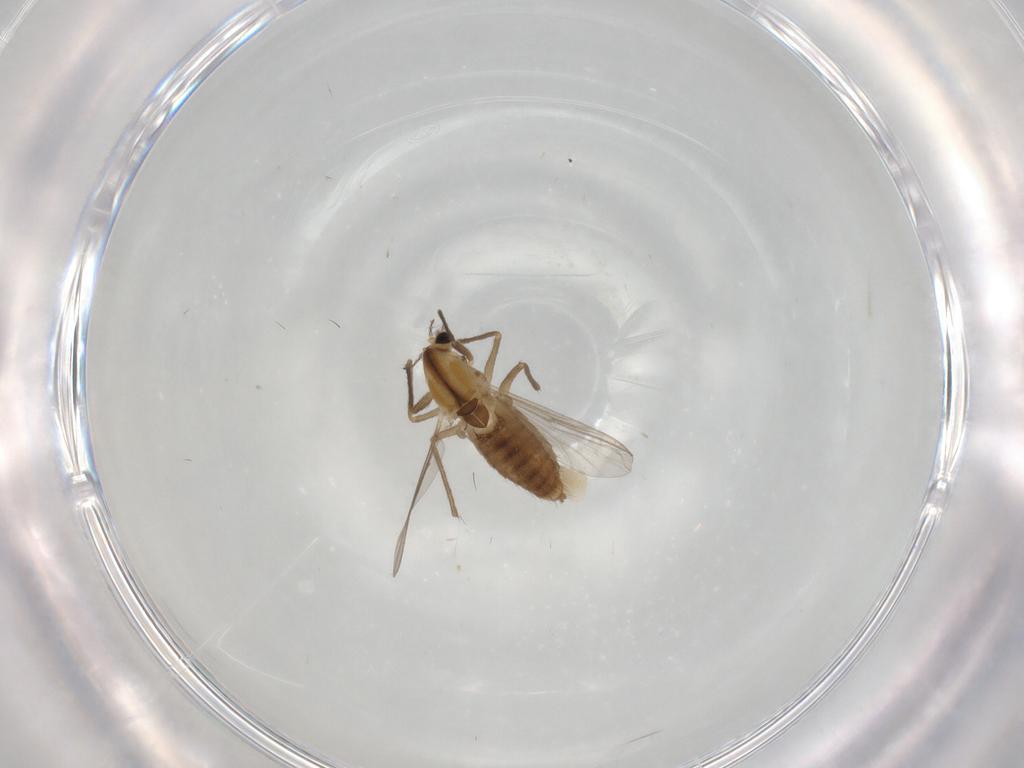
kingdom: Animalia
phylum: Arthropoda
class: Insecta
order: Diptera
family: Chironomidae
